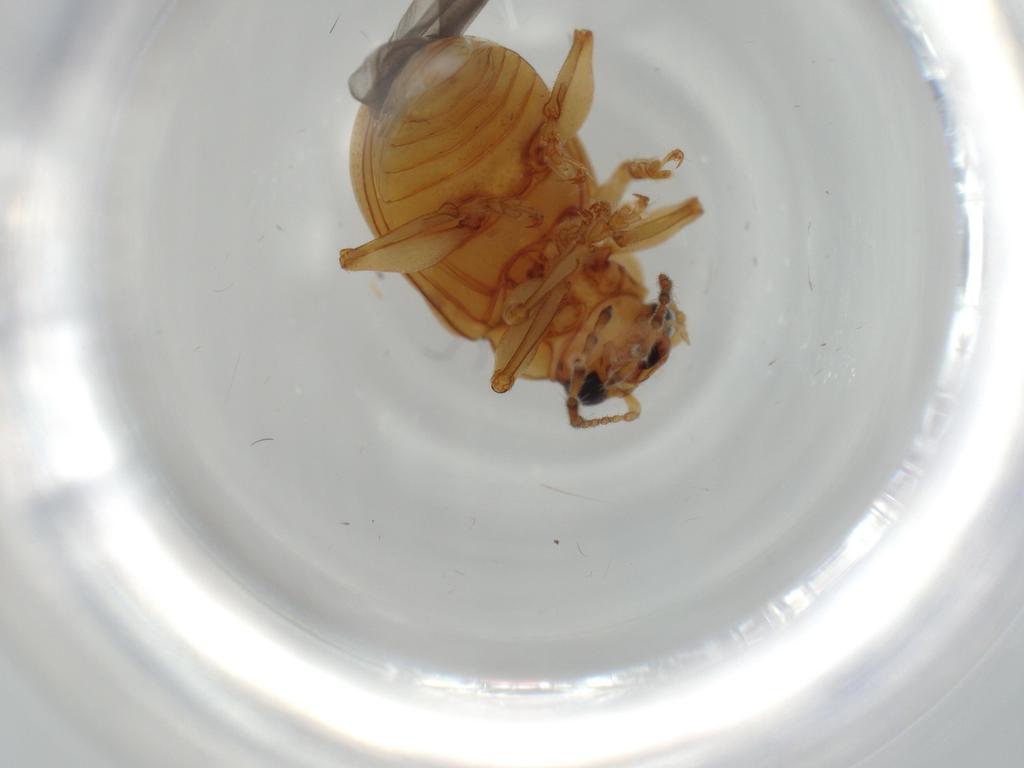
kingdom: Animalia
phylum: Arthropoda
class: Insecta
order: Coleoptera
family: Chrysomelidae
